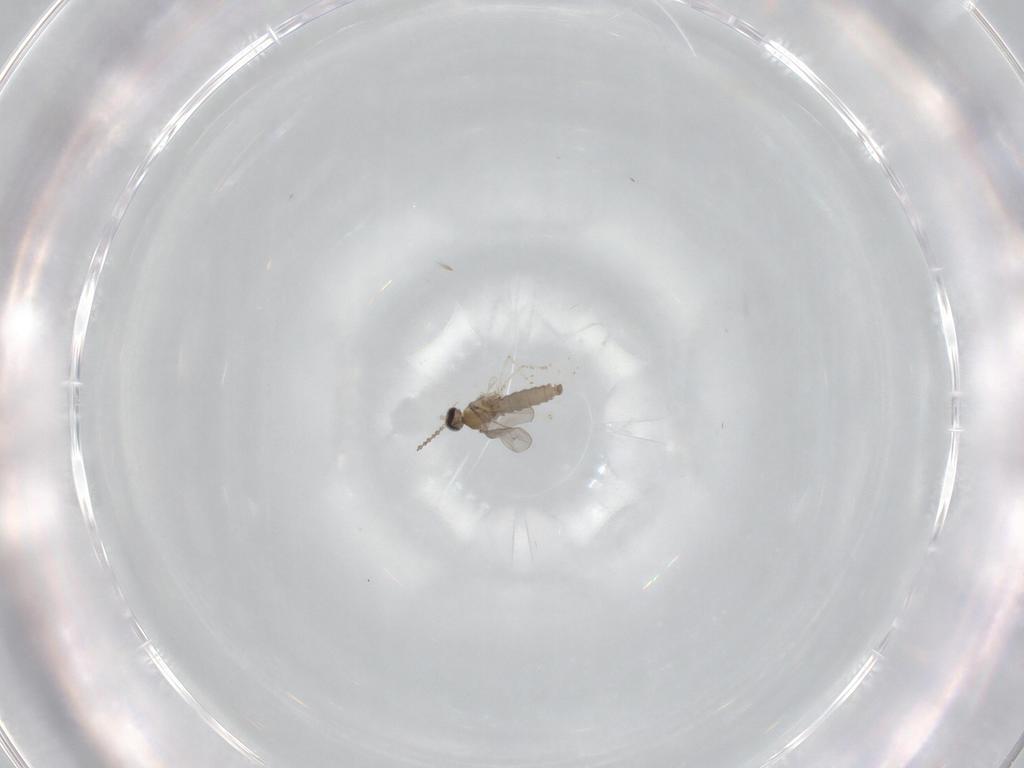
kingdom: Animalia
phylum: Arthropoda
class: Insecta
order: Diptera
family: Cecidomyiidae
